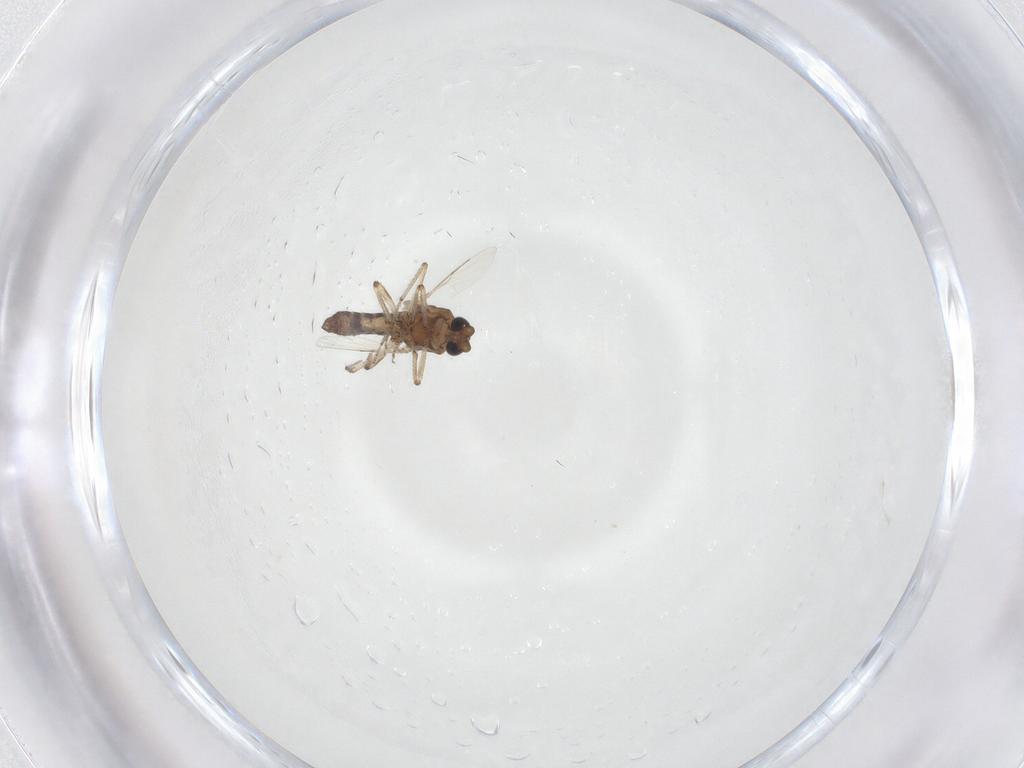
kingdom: Animalia
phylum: Arthropoda
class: Insecta
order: Diptera
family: Ceratopogonidae
